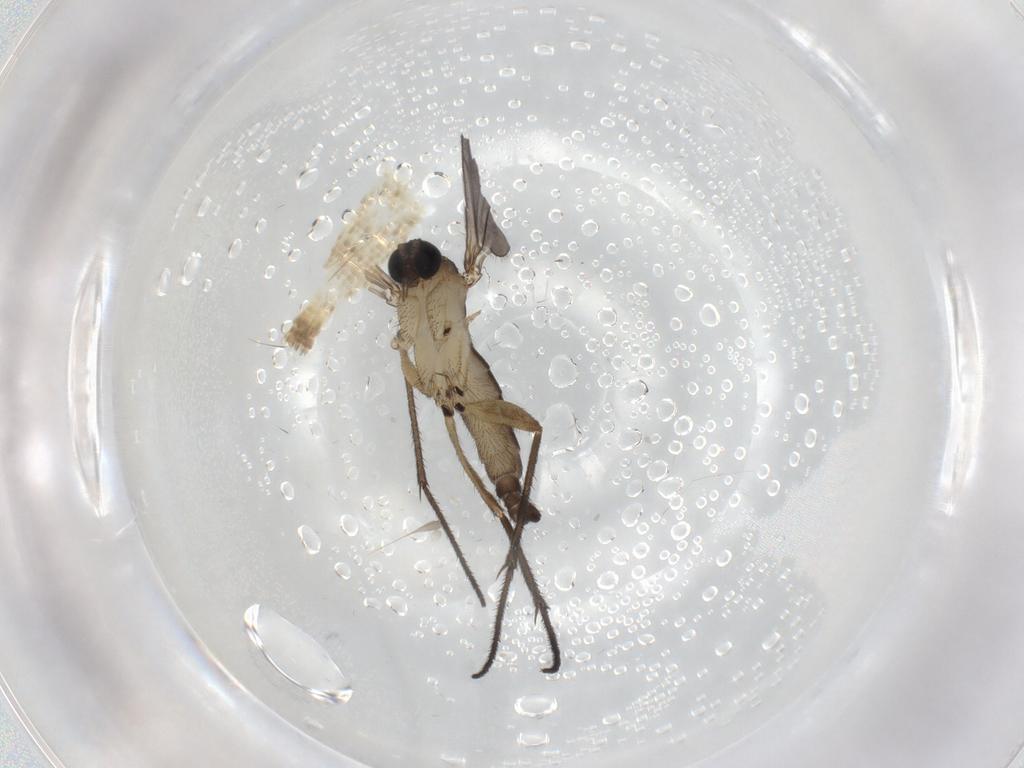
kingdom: Animalia
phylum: Arthropoda
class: Insecta
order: Diptera
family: Sciaridae
